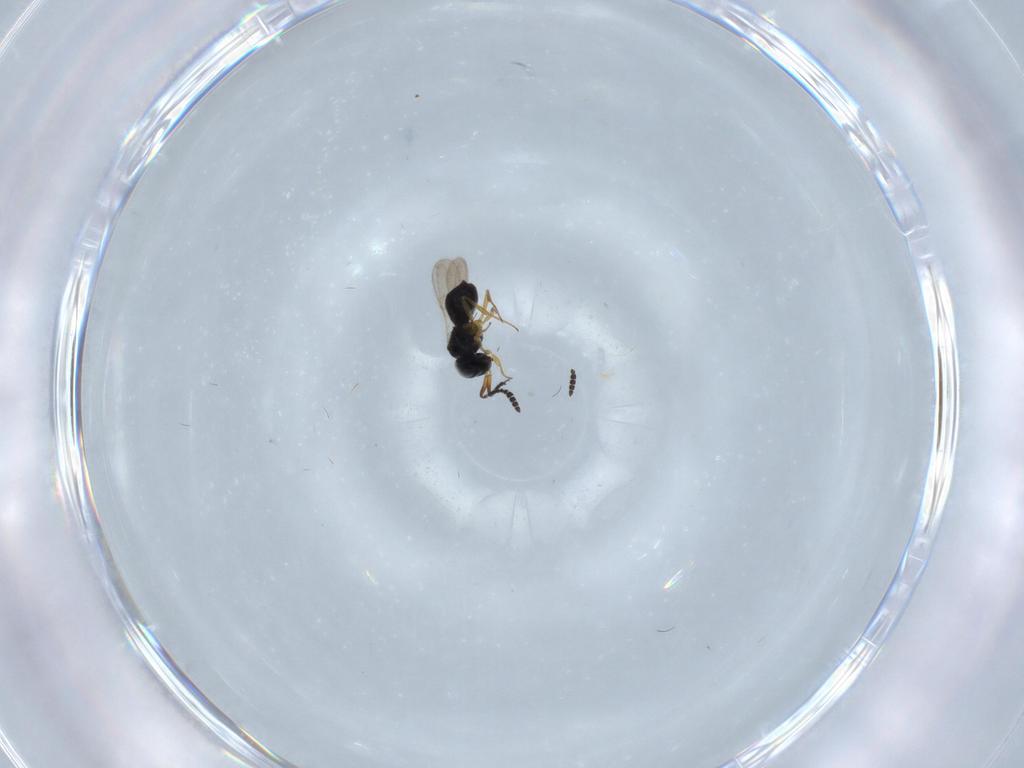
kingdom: Animalia
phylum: Arthropoda
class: Insecta
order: Hymenoptera
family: Scelionidae
